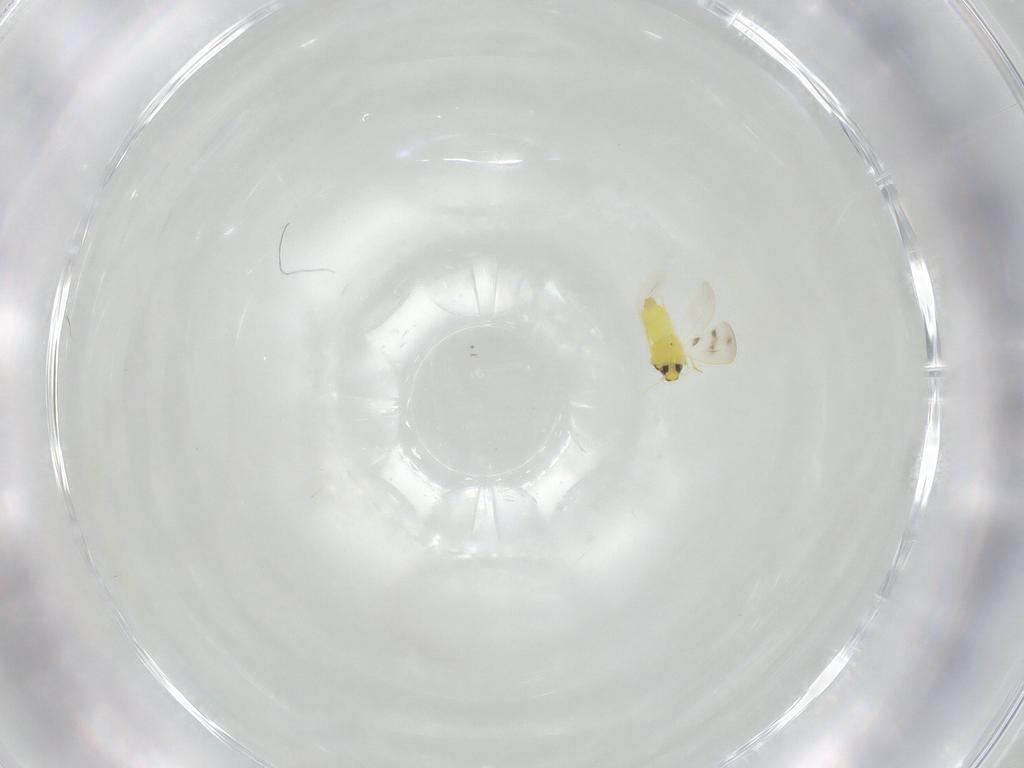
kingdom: Animalia
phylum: Arthropoda
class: Insecta
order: Hemiptera
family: Aleyrodidae
